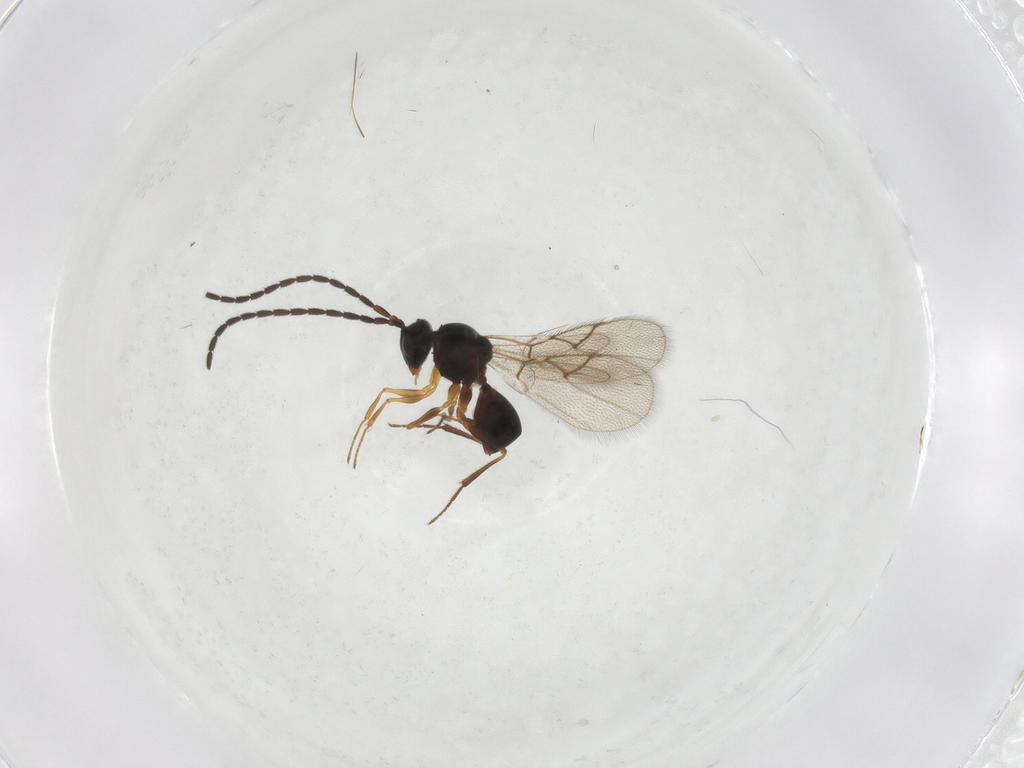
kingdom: Animalia
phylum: Arthropoda
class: Insecta
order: Hymenoptera
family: Figitidae
